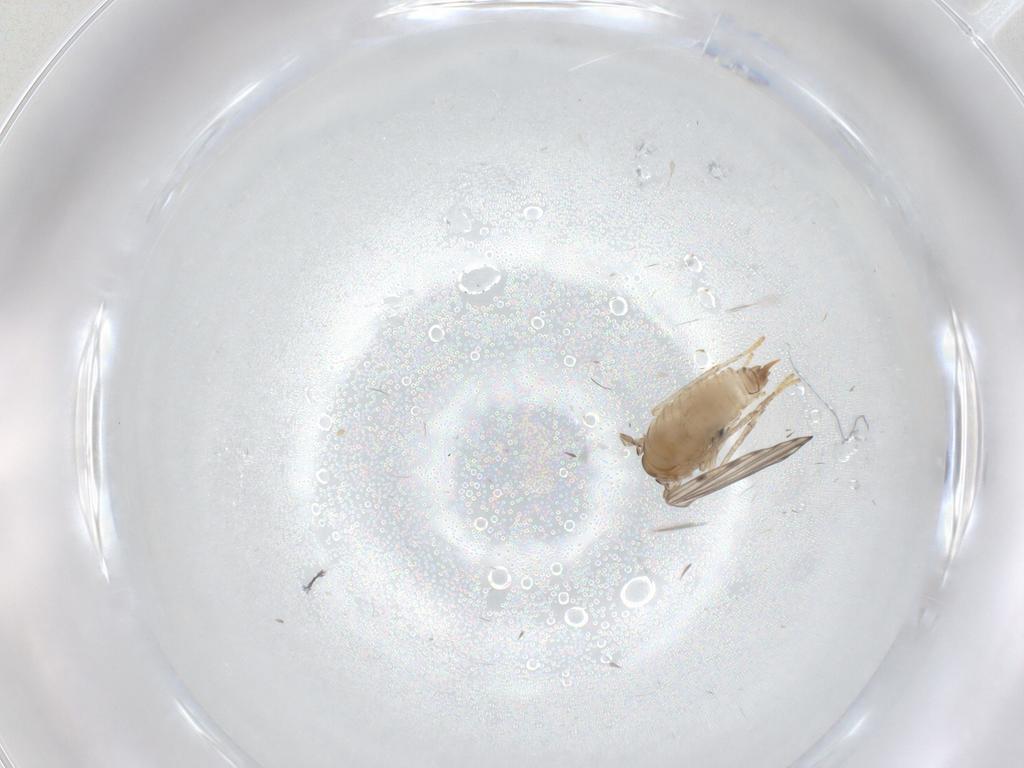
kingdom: Animalia
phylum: Arthropoda
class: Insecta
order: Diptera
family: Psychodidae
